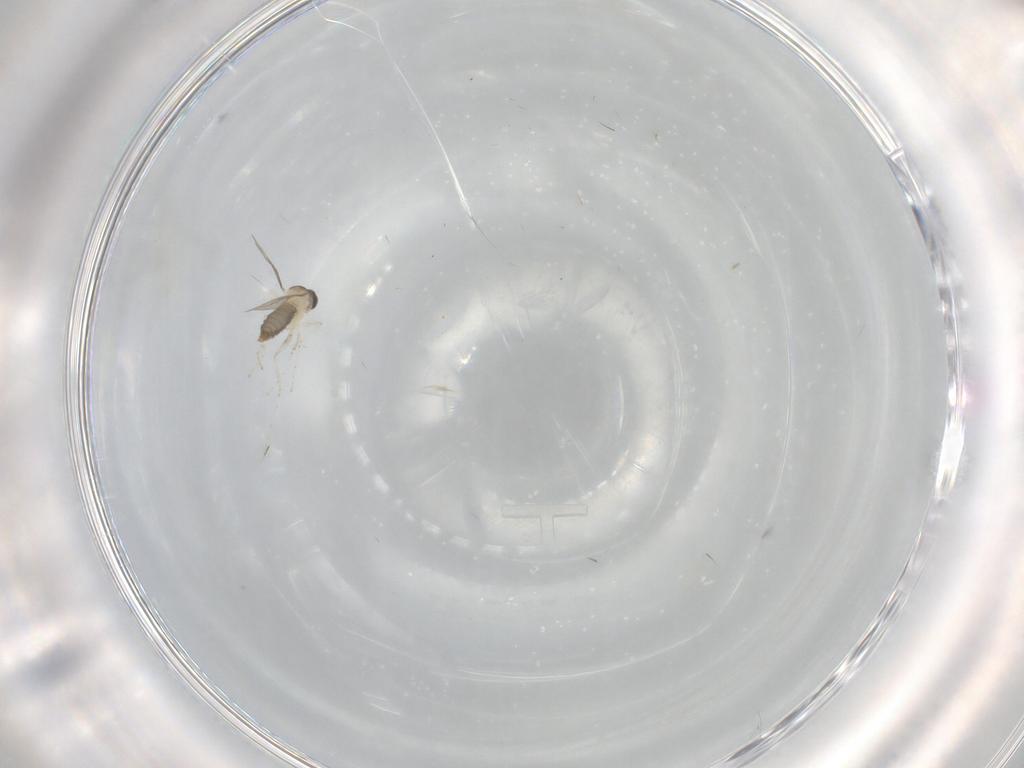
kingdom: Animalia
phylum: Arthropoda
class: Insecta
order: Diptera
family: Cecidomyiidae
